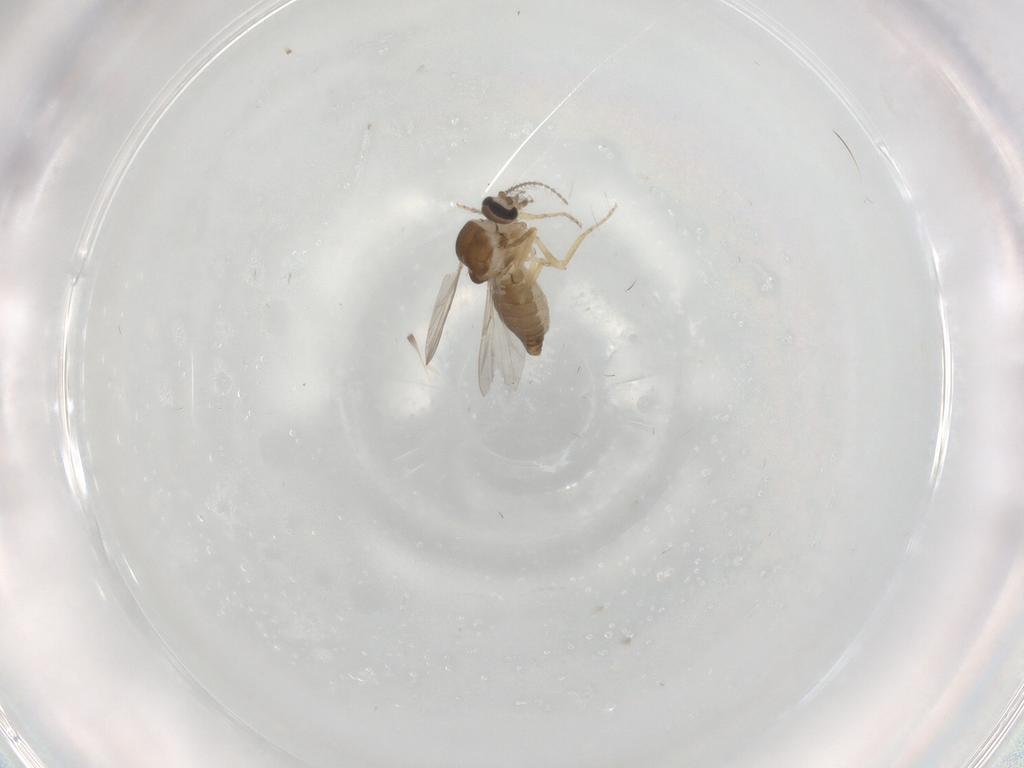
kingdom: Animalia
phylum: Arthropoda
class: Insecta
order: Diptera
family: Ceratopogonidae
